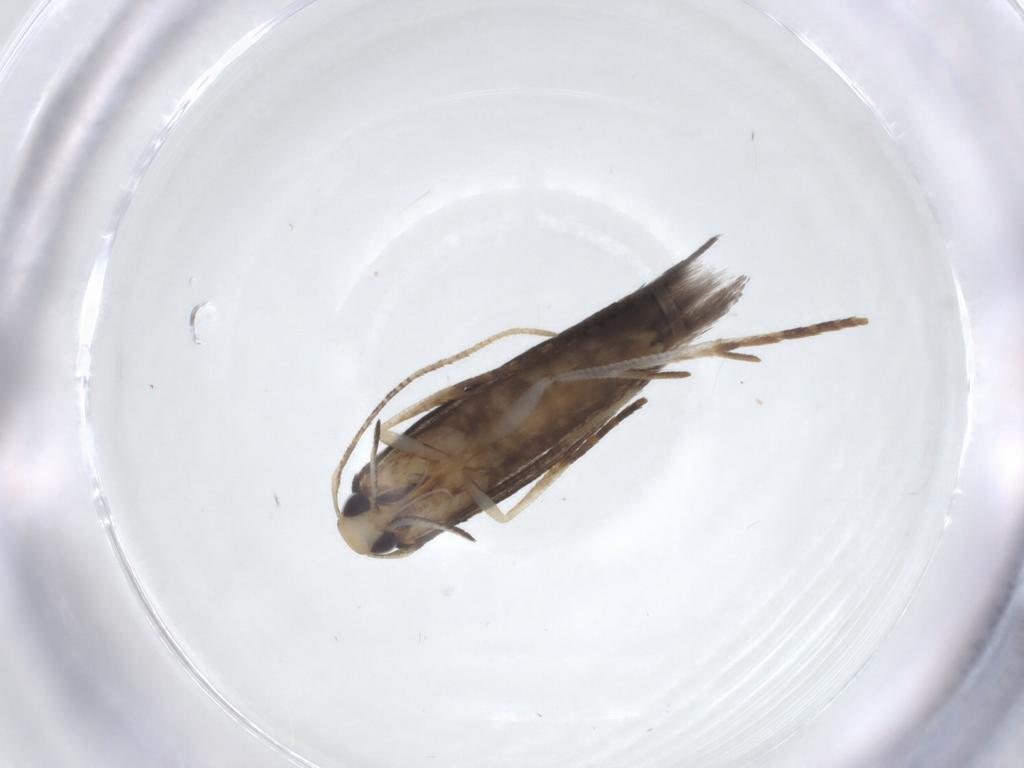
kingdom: Animalia
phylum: Arthropoda
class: Insecta
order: Lepidoptera
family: Cosmopterigidae
